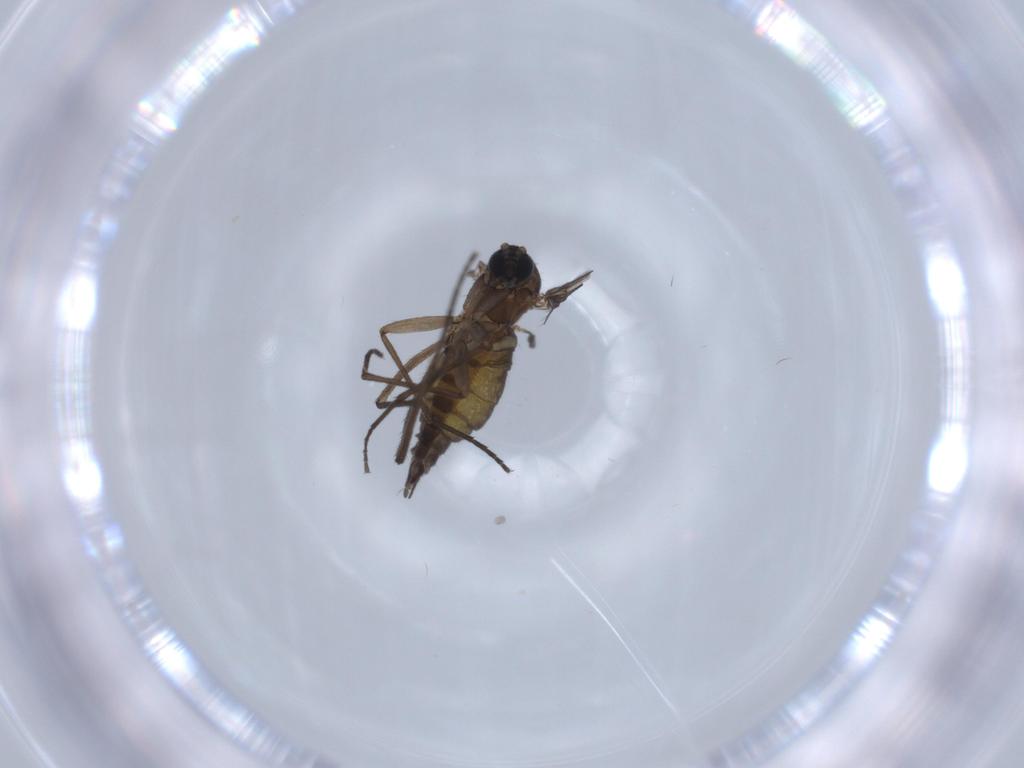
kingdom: Animalia
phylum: Arthropoda
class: Insecta
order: Diptera
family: Sciaridae
